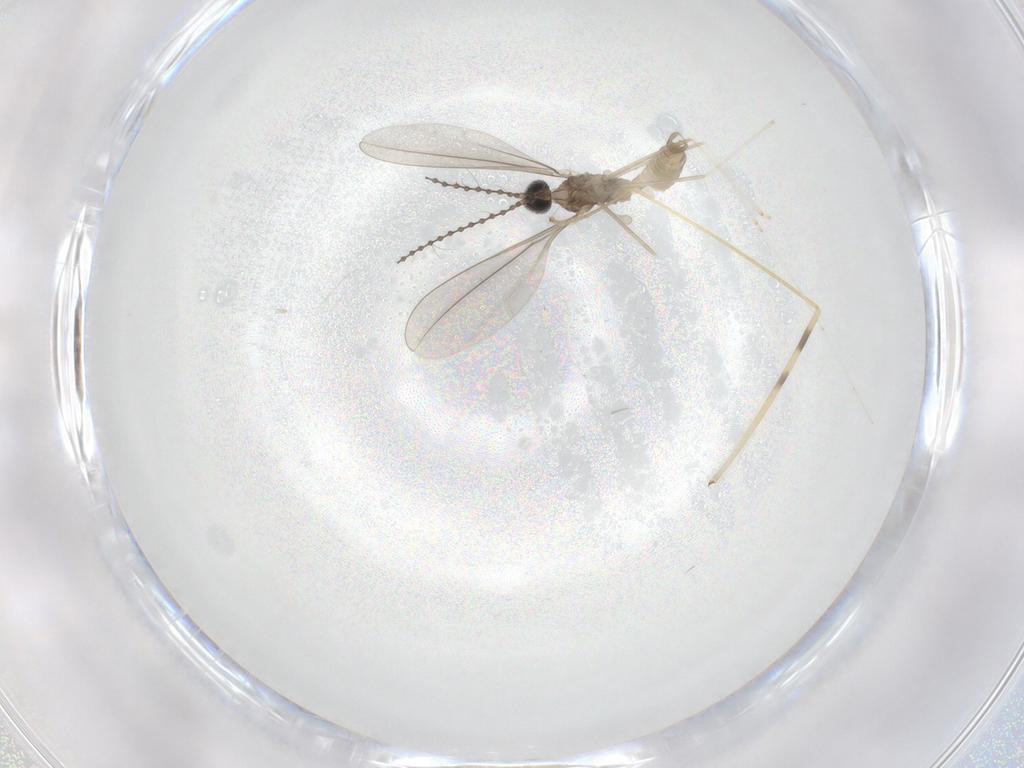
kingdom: Animalia
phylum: Arthropoda
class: Insecta
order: Diptera
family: Cecidomyiidae
